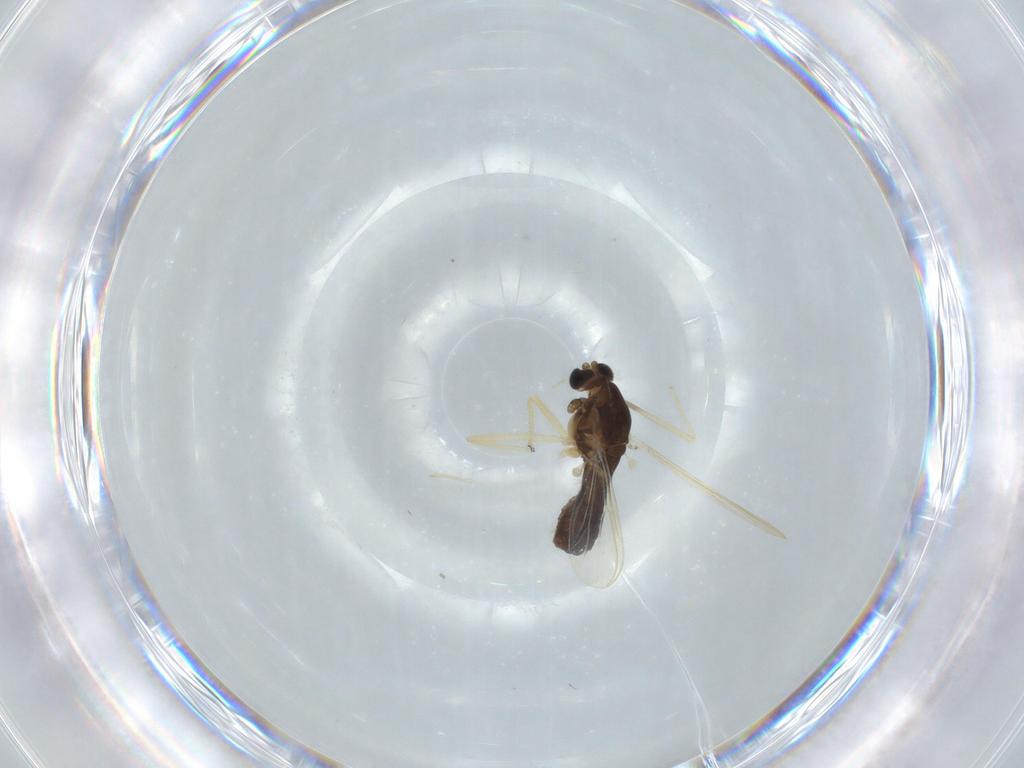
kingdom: Animalia
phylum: Arthropoda
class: Insecta
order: Diptera
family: Chironomidae
